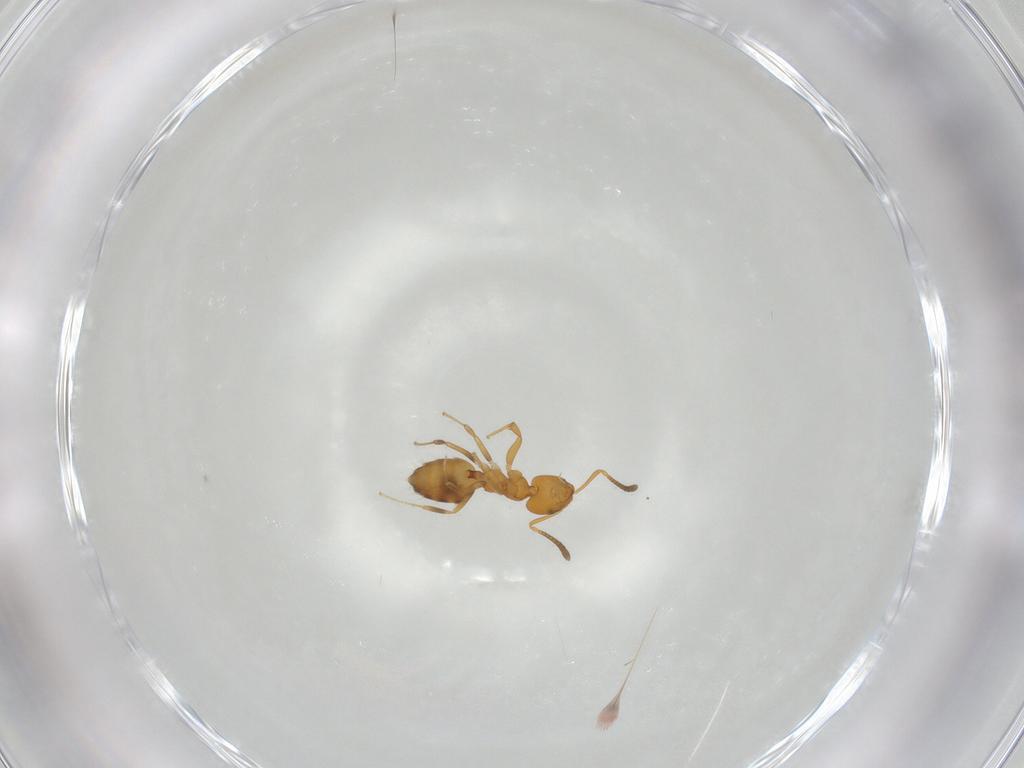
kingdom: Animalia
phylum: Arthropoda
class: Insecta
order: Hymenoptera
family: Formicidae
